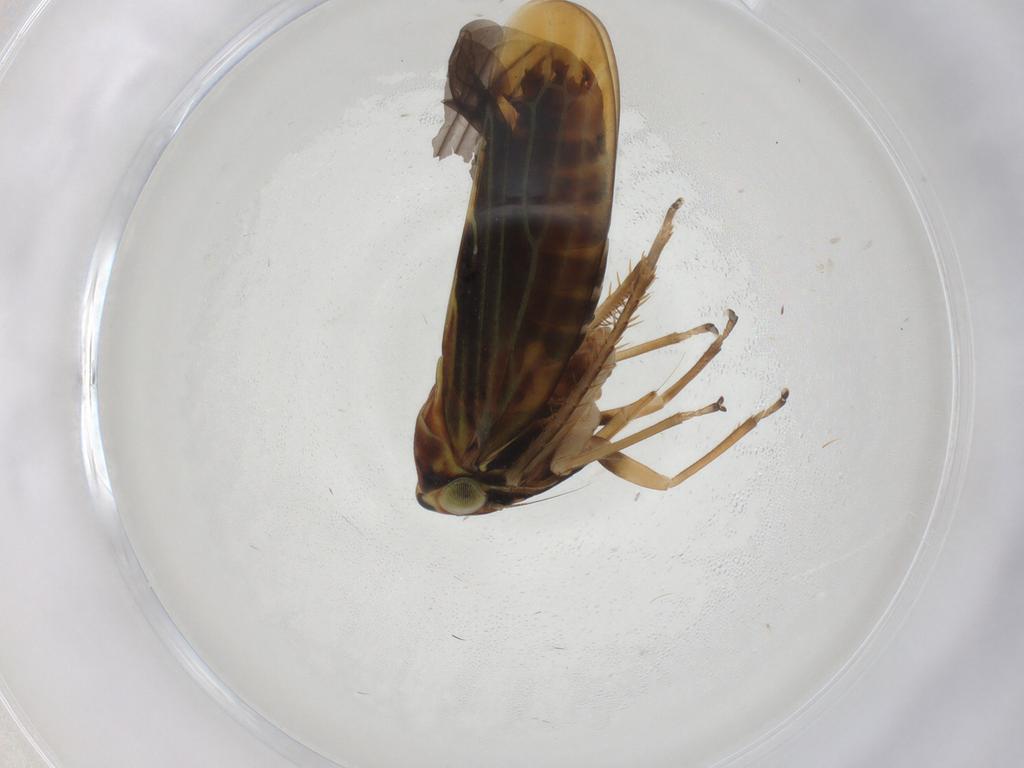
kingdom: Animalia
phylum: Arthropoda
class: Insecta
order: Hemiptera
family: Cicadellidae
